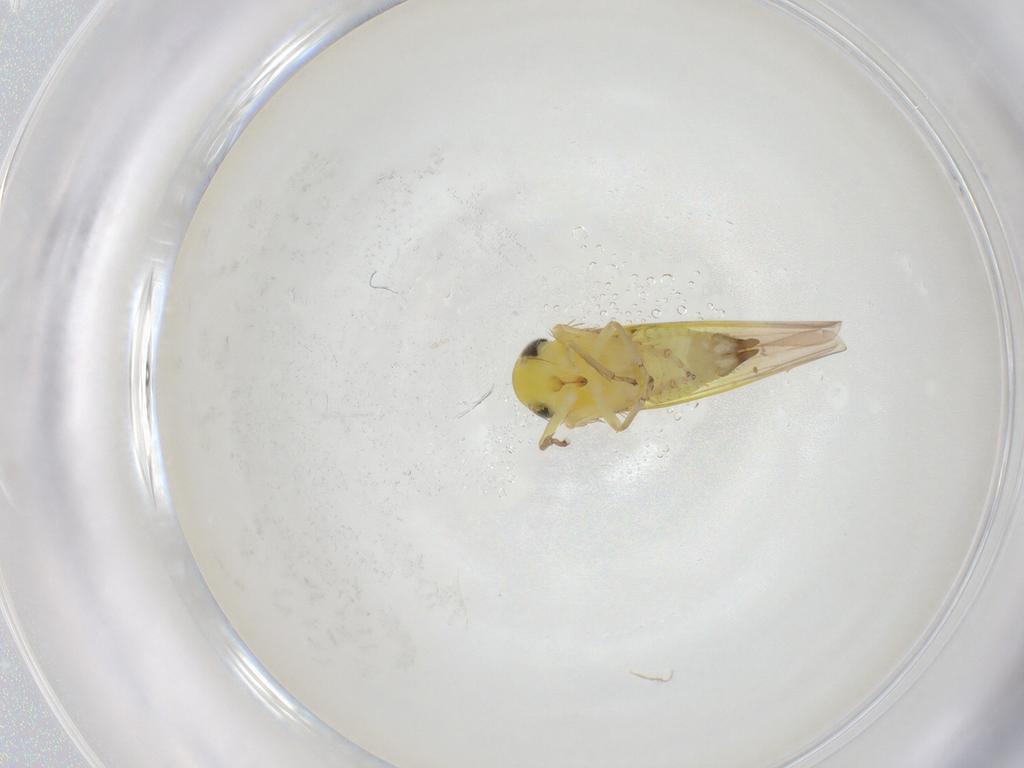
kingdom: Animalia
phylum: Arthropoda
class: Insecta
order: Hemiptera
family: Cicadellidae
